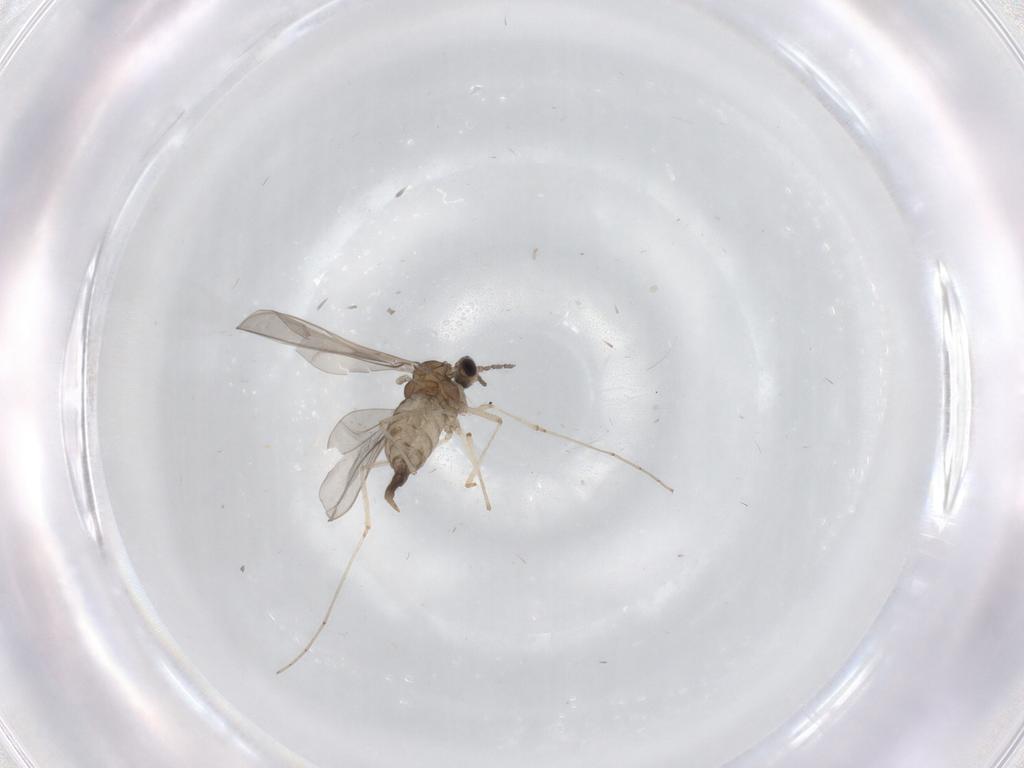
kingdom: Animalia
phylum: Arthropoda
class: Insecta
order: Diptera
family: Cecidomyiidae
